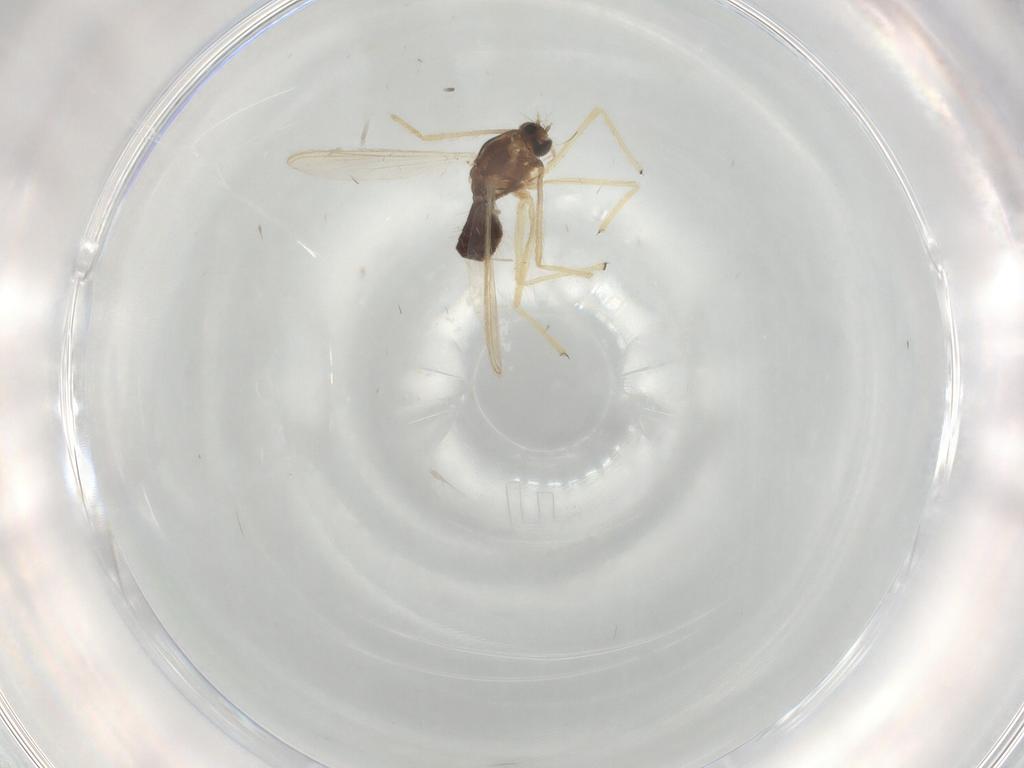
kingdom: Animalia
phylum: Arthropoda
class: Insecta
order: Diptera
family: Chironomidae
